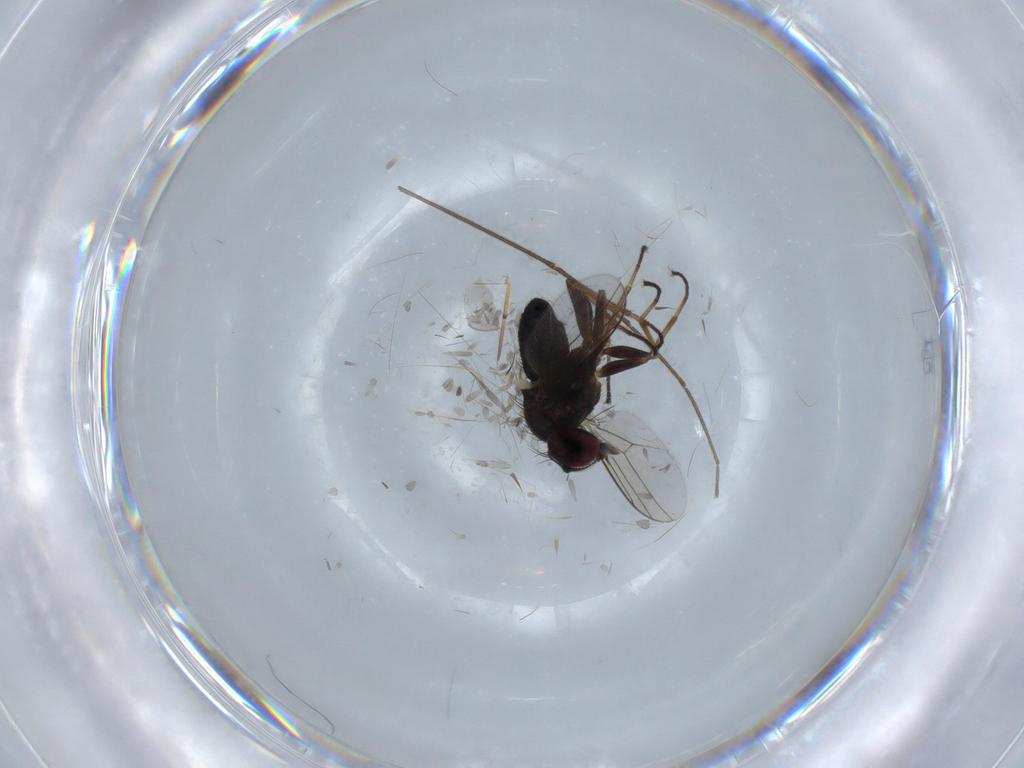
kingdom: Animalia
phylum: Arthropoda
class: Insecta
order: Diptera
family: Dolichopodidae
